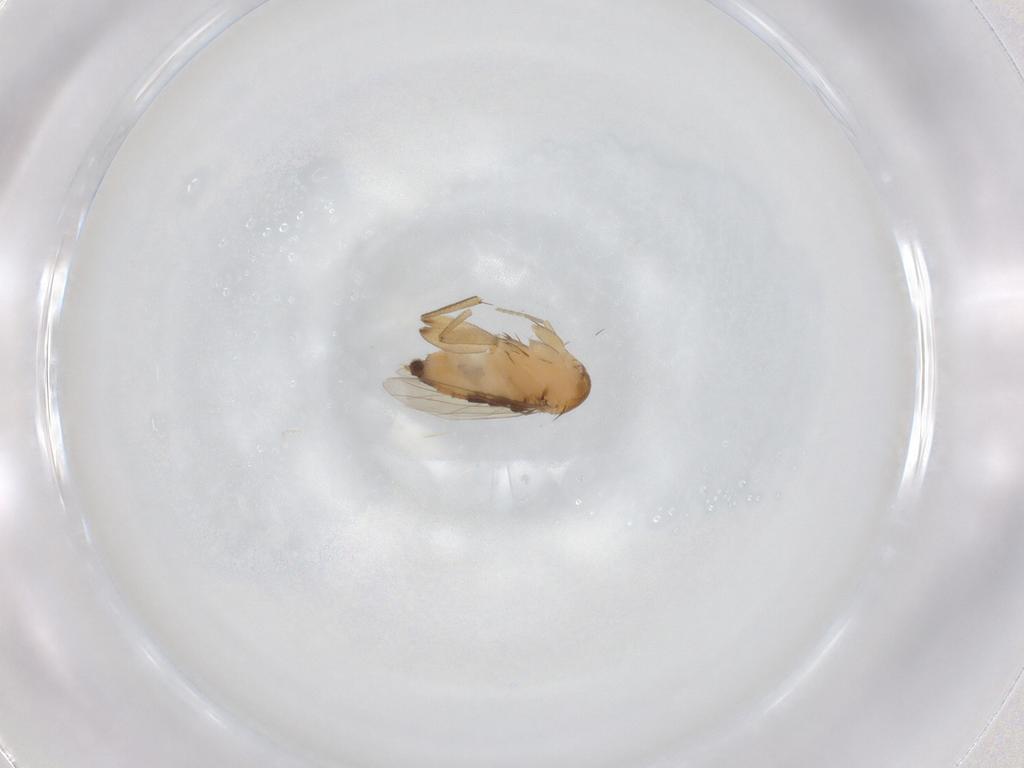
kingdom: Animalia
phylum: Arthropoda
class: Insecta
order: Diptera
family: Phoridae
